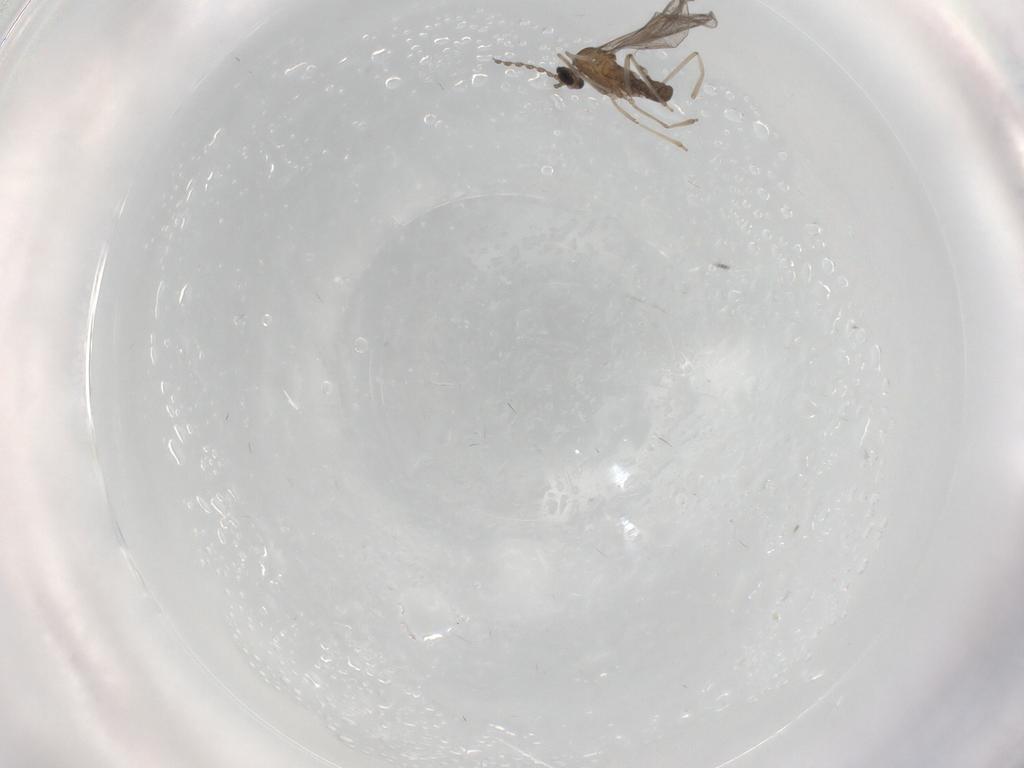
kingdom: Animalia
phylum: Arthropoda
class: Insecta
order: Diptera
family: Cecidomyiidae
